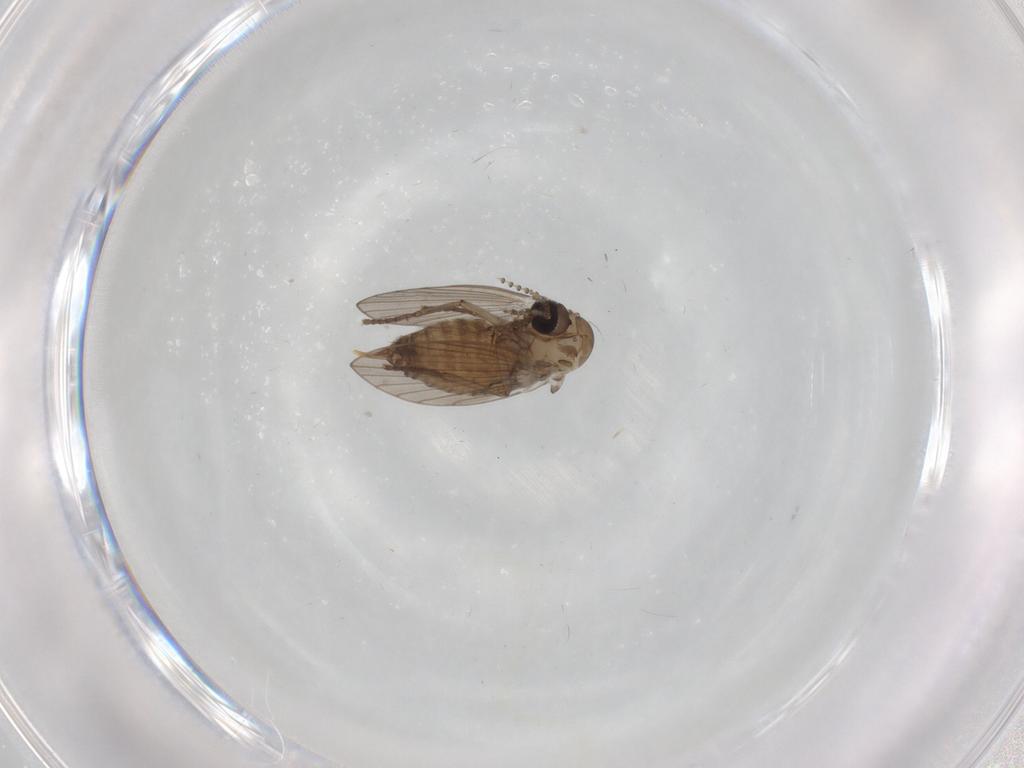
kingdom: Animalia
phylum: Arthropoda
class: Insecta
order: Diptera
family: Psychodidae
